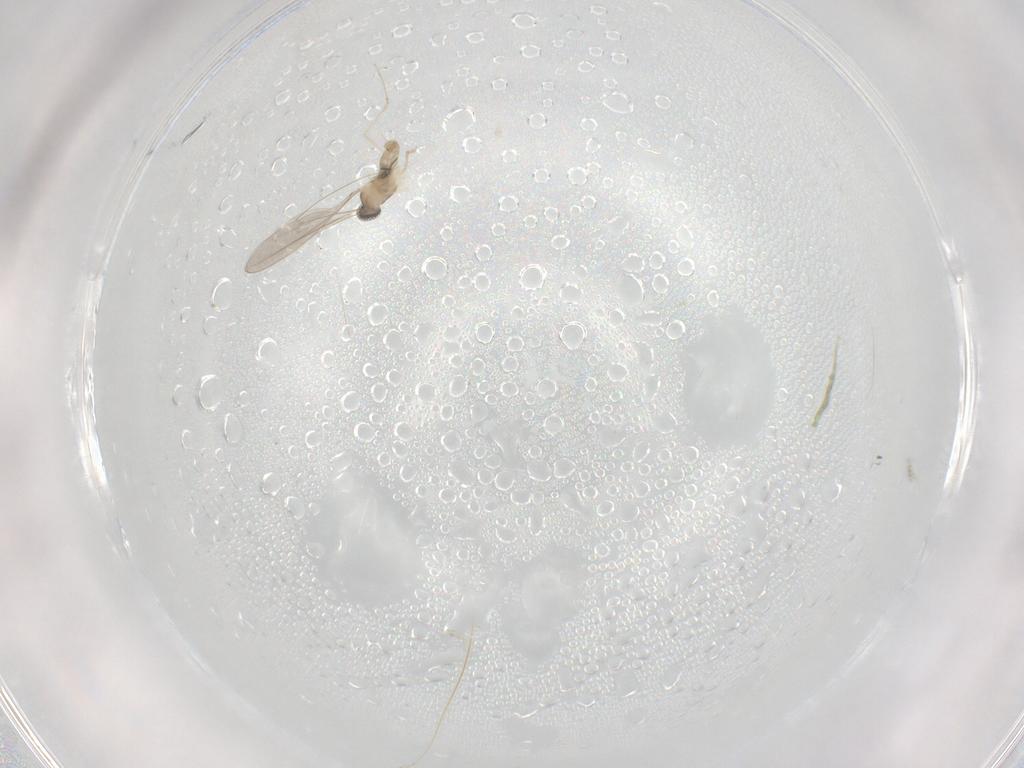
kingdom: Animalia
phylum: Arthropoda
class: Insecta
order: Diptera
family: Cecidomyiidae
